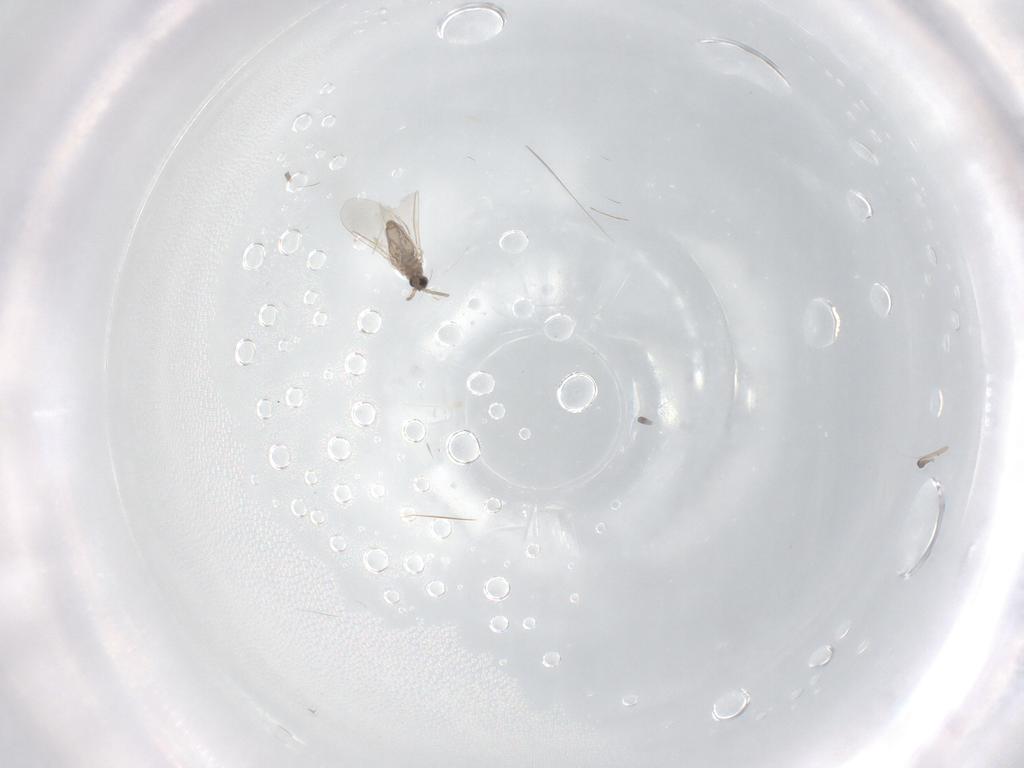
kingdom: Animalia
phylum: Arthropoda
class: Insecta
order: Diptera
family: Cecidomyiidae
